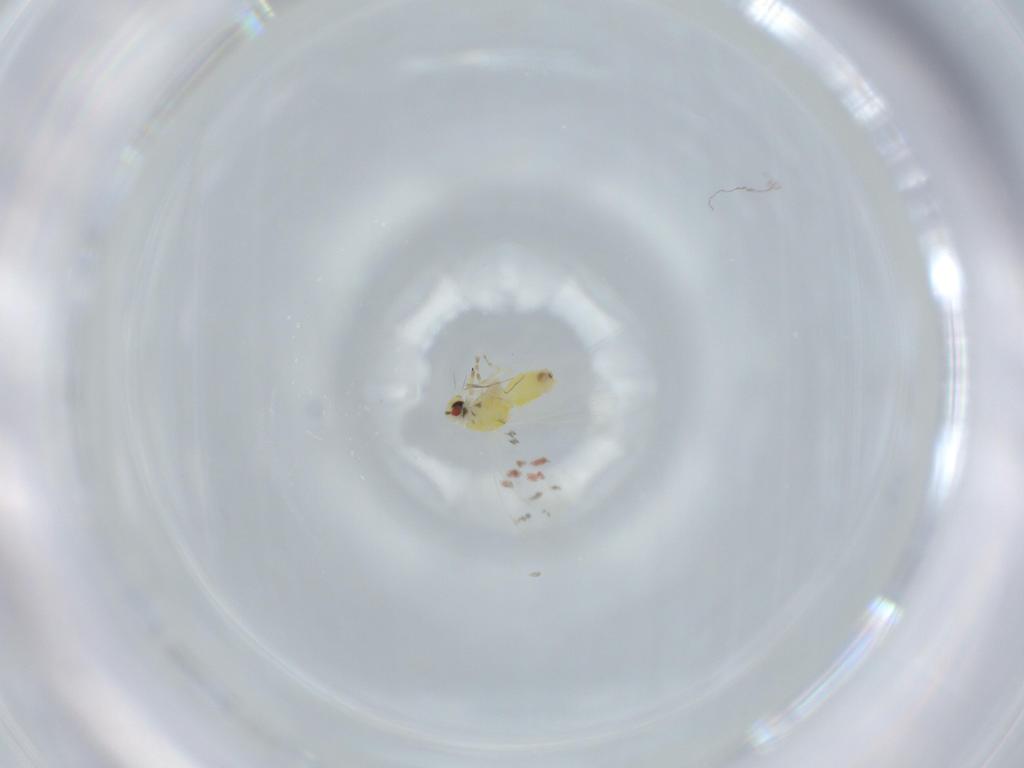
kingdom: Animalia
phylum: Arthropoda
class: Insecta
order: Hemiptera
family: Aleyrodidae
